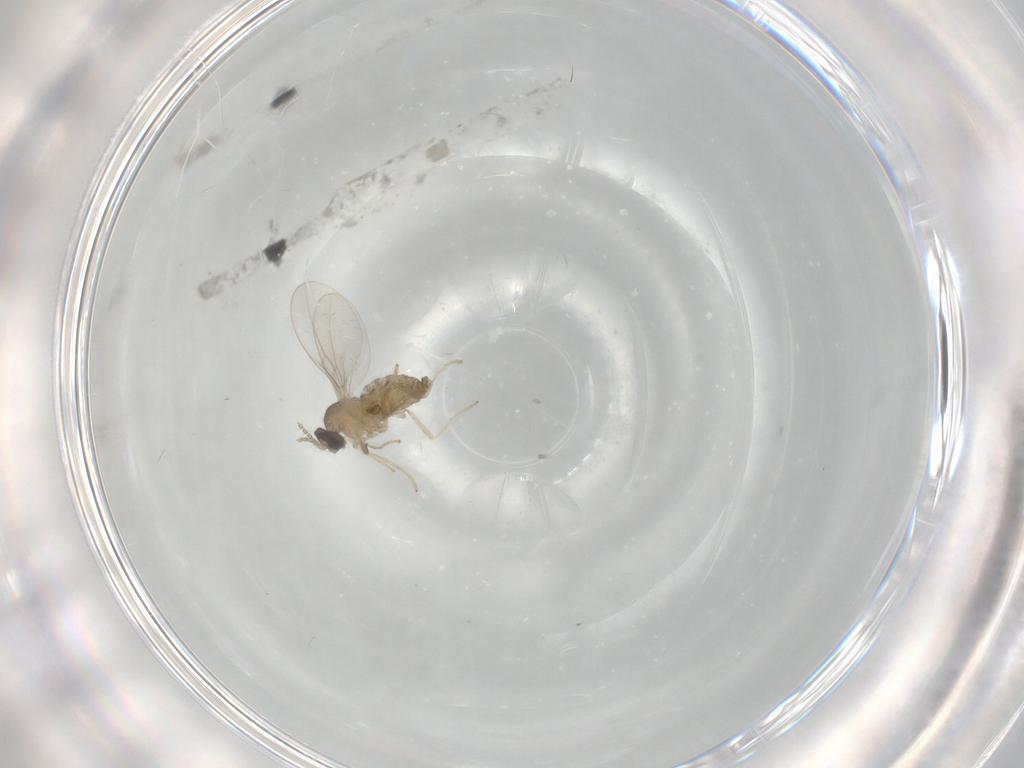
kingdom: Animalia
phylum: Arthropoda
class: Insecta
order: Diptera
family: Cecidomyiidae
